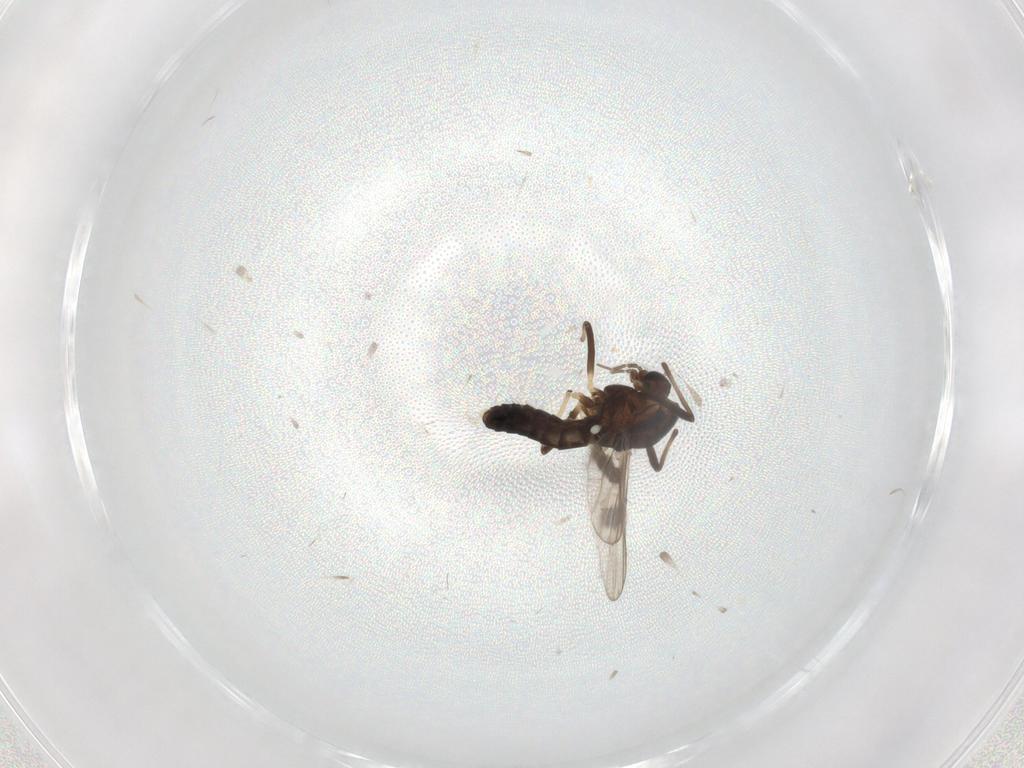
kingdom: Animalia
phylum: Arthropoda
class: Insecta
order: Diptera
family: Chironomidae
